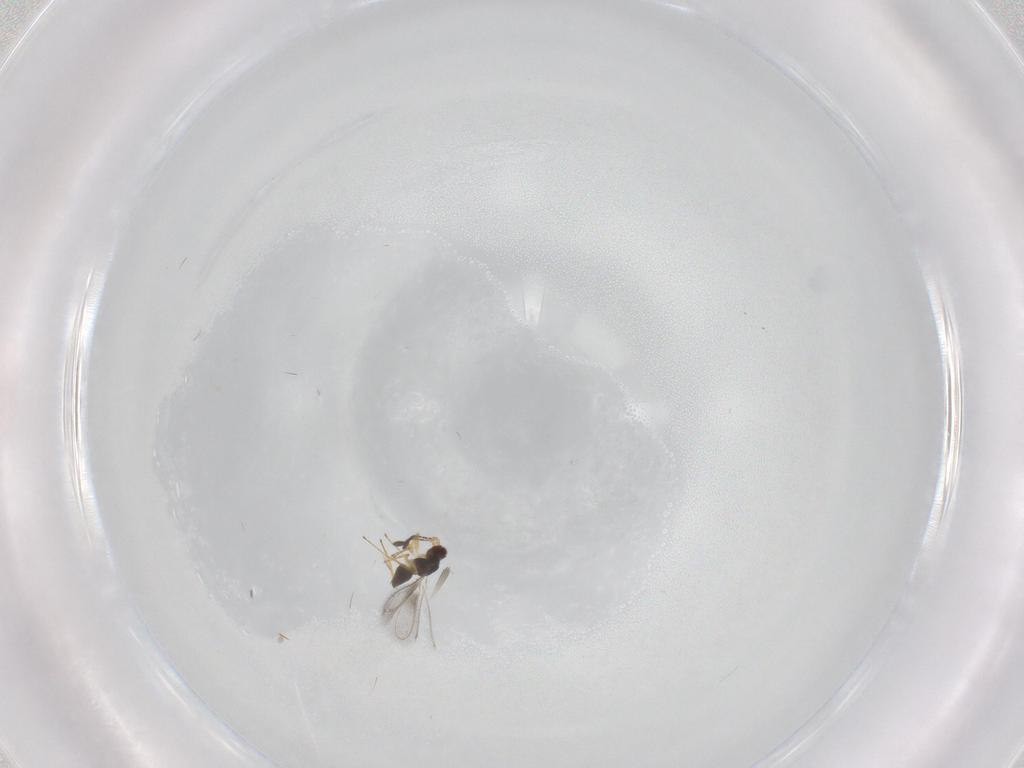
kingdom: Animalia
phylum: Arthropoda
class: Insecta
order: Hymenoptera
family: Mymaridae
